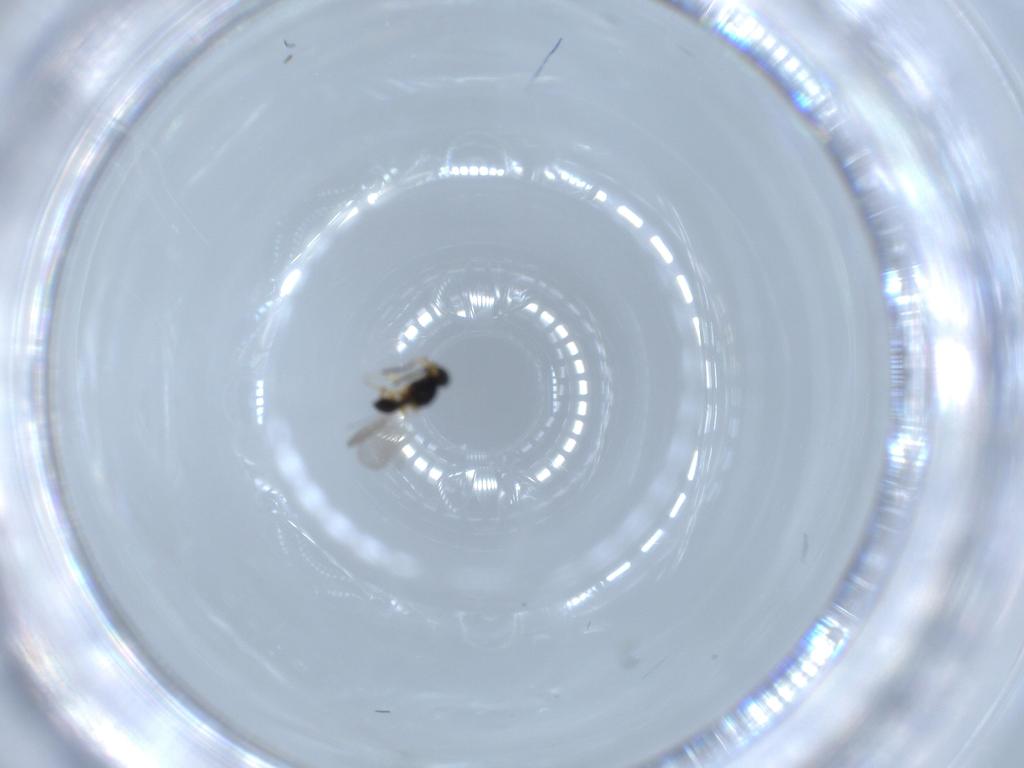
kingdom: Animalia
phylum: Arthropoda
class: Insecta
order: Hymenoptera
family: Platygastridae
